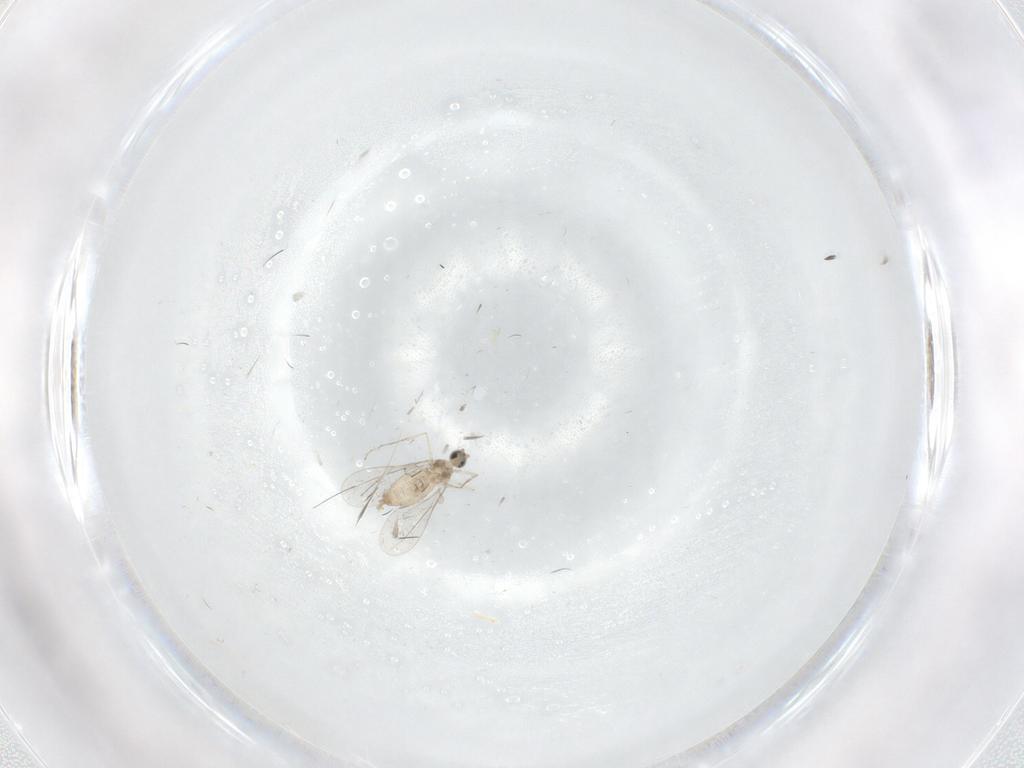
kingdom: Animalia
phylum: Arthropoda
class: Insecta
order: Diptera
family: Cecidomyiidae
